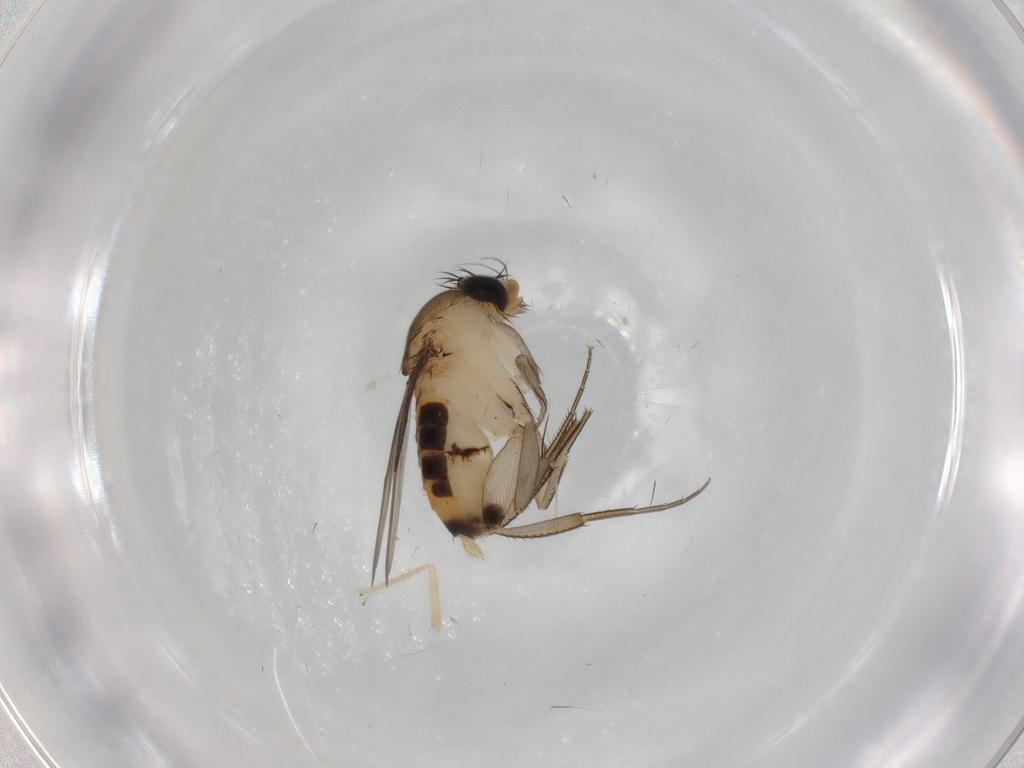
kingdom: Animalia
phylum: Arthropoda
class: Insecta
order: Diptera
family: Phoridae
